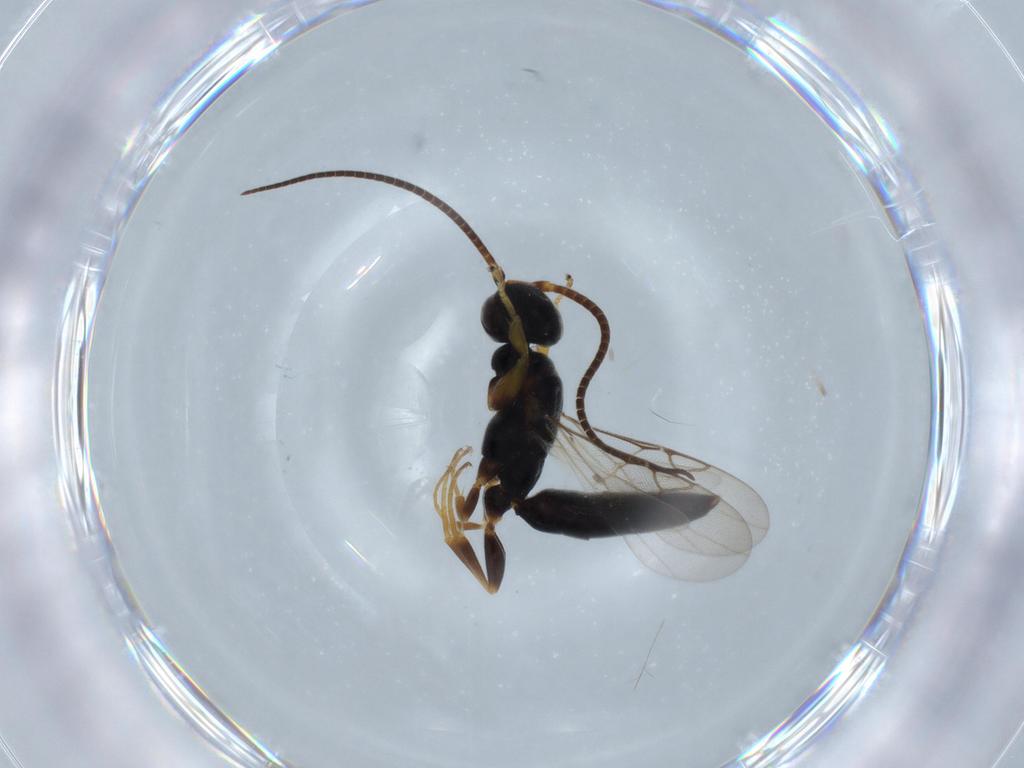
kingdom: Animalia
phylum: Arthropoda
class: Insecta
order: Hymenoptera
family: Sclerogibbidae
